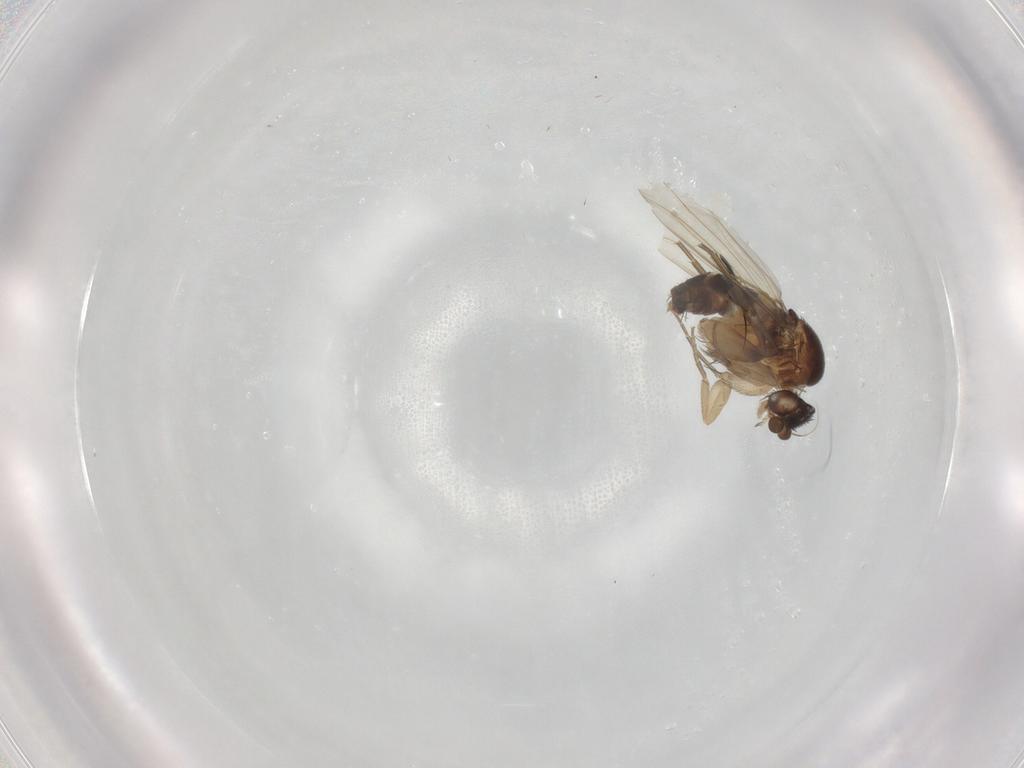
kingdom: Animalia
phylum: Arthropoda
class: Insecta
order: Diptera
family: Phoridae
